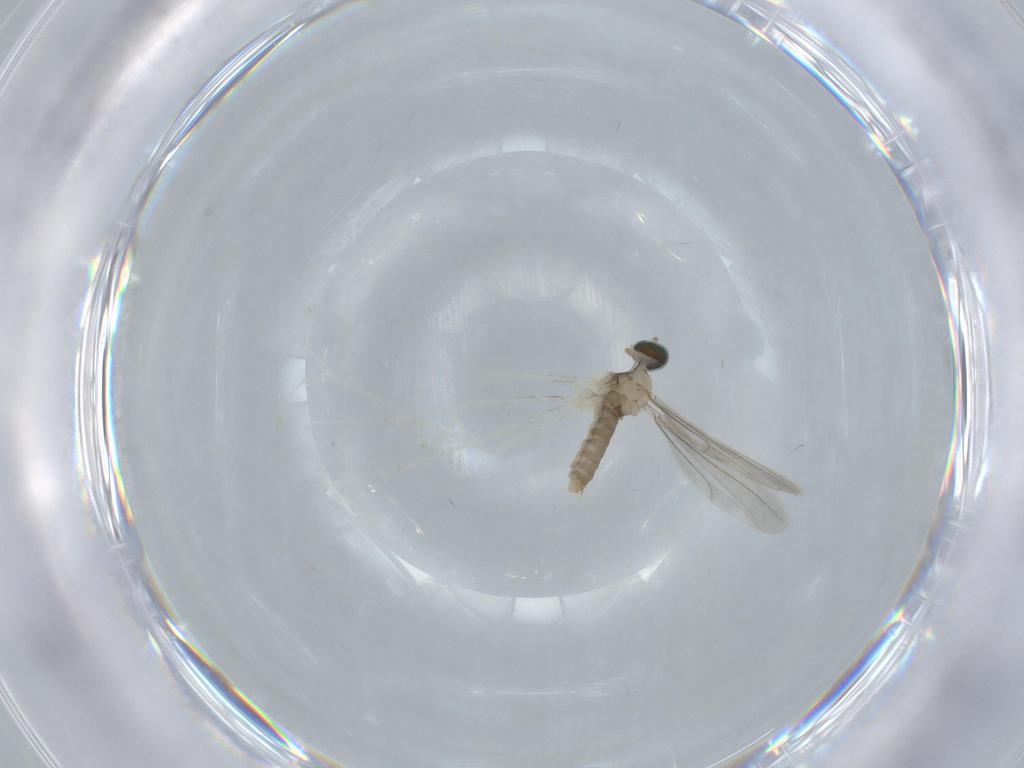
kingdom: Animalia
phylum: Arthropoda
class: Insecta
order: Diptera
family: Cecidomyiidae
